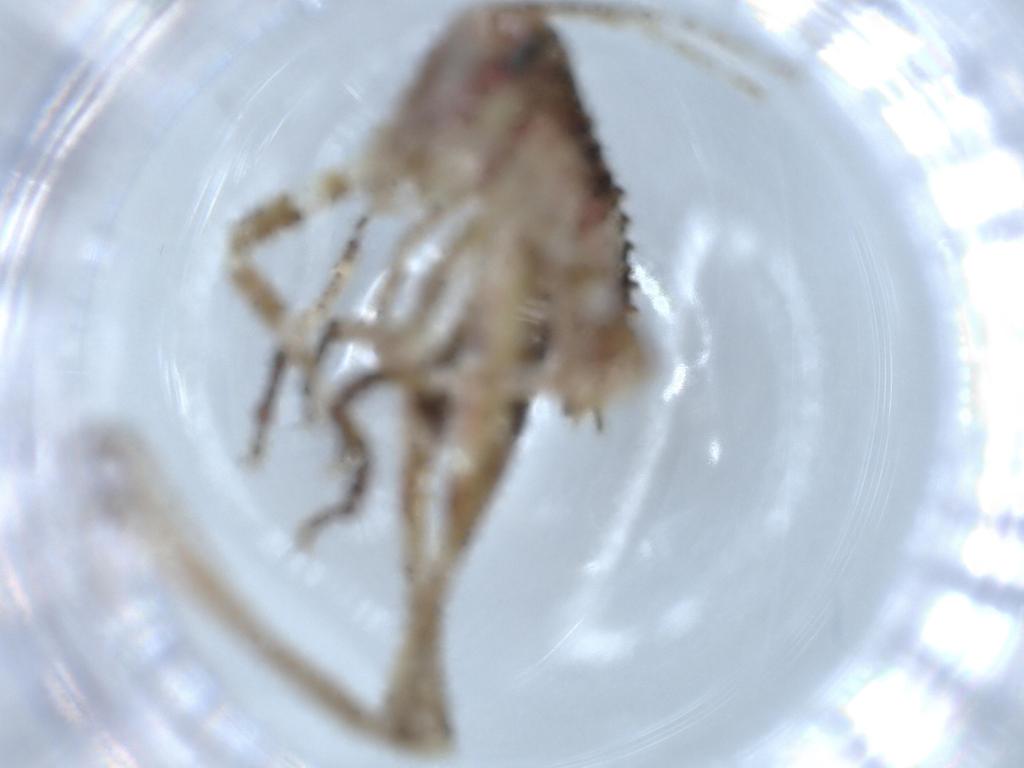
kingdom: Animalia
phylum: Arthropoda
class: Insecta
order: Orthoptera
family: Tettigoniidae
